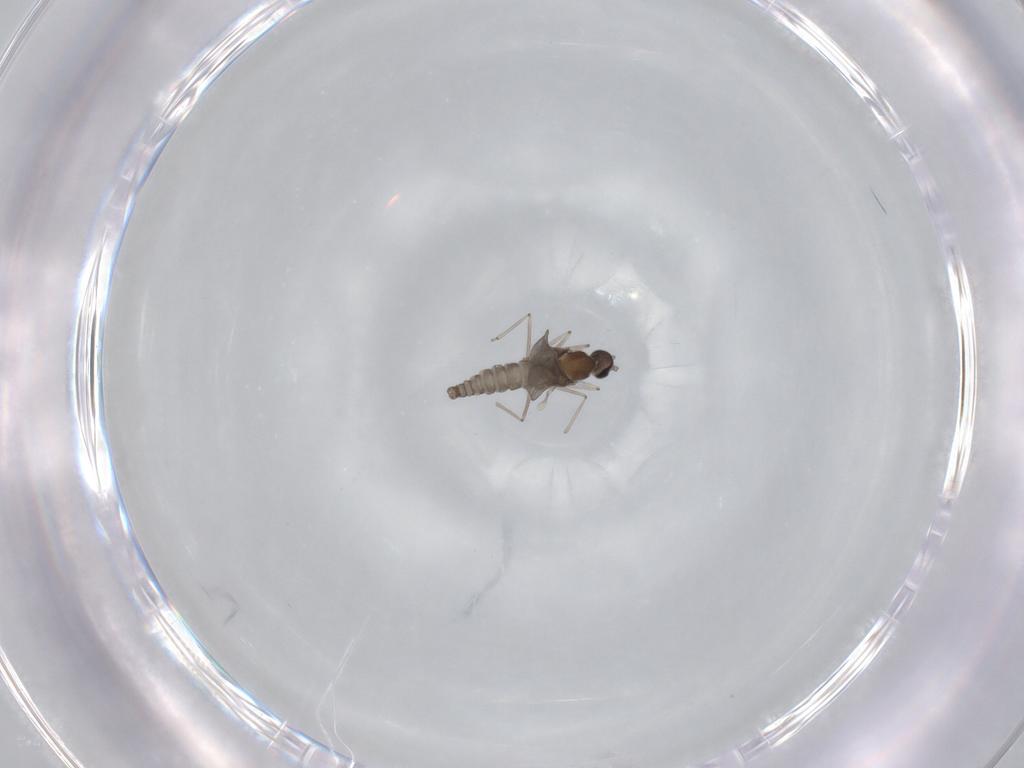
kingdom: Animalia
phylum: Arthropoda
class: Insecta
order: Diptera
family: Cecidomyiidae
